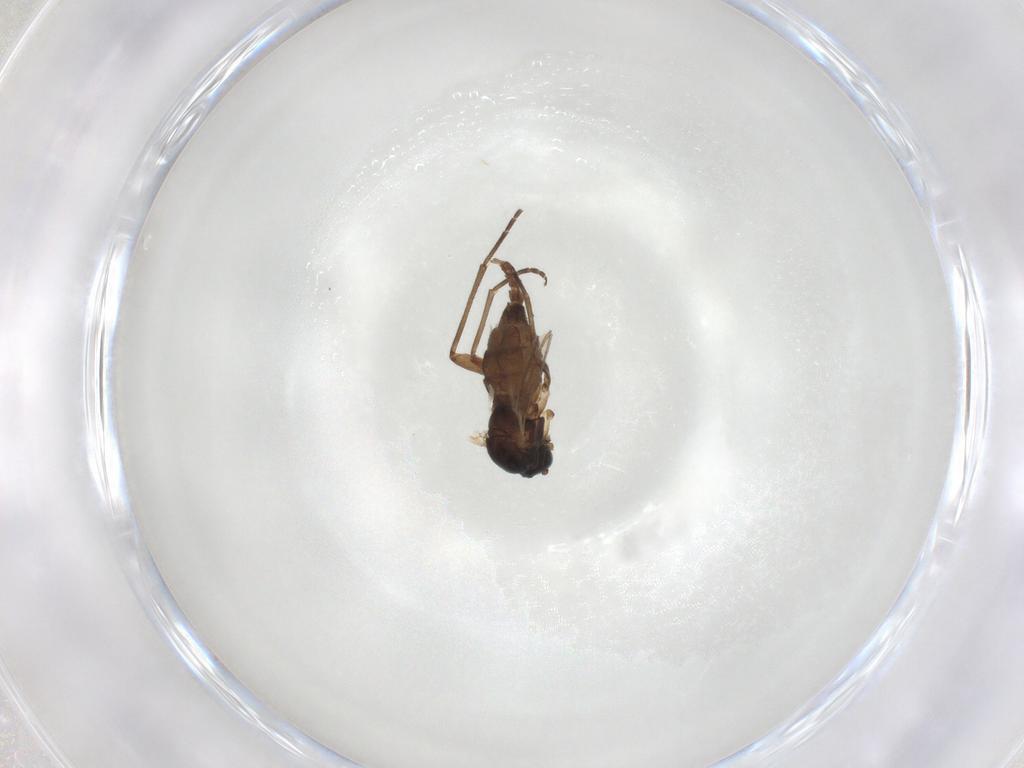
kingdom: Animalia
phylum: Arthropoda
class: Insecta
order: Diptera
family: Sciaridae
